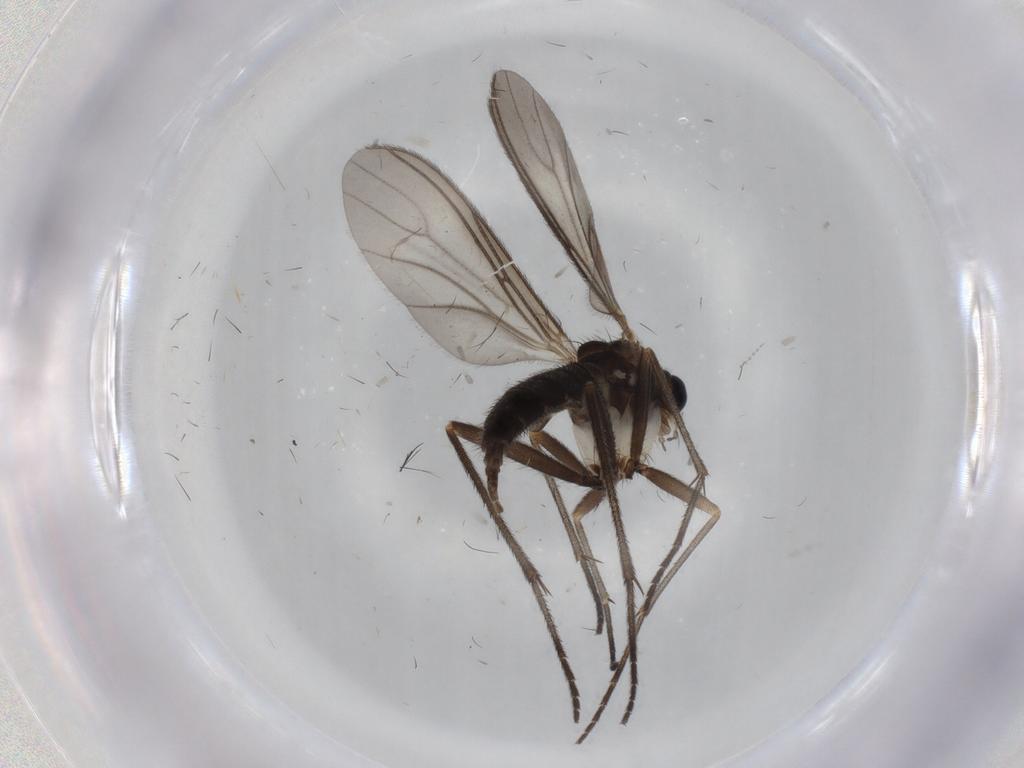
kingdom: Animalia
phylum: Arthropoda
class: Insecta
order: Diptera
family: Sciaridae
